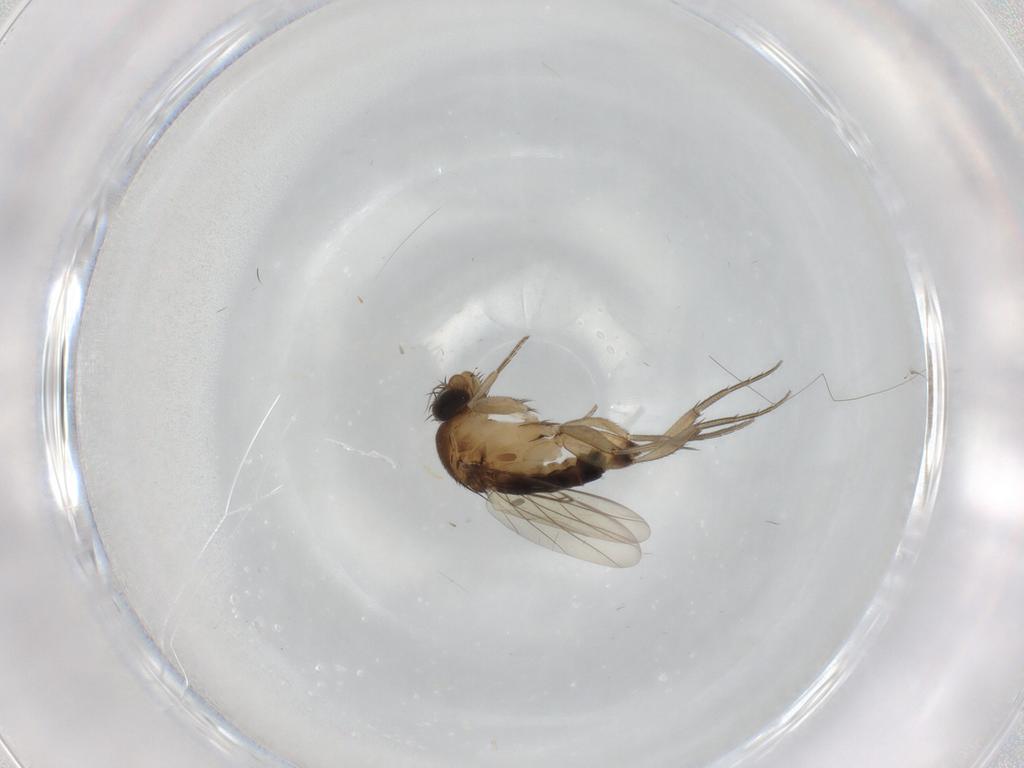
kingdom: Animalia
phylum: Arthropoda
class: Insecta
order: Diptera
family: Phoridae
